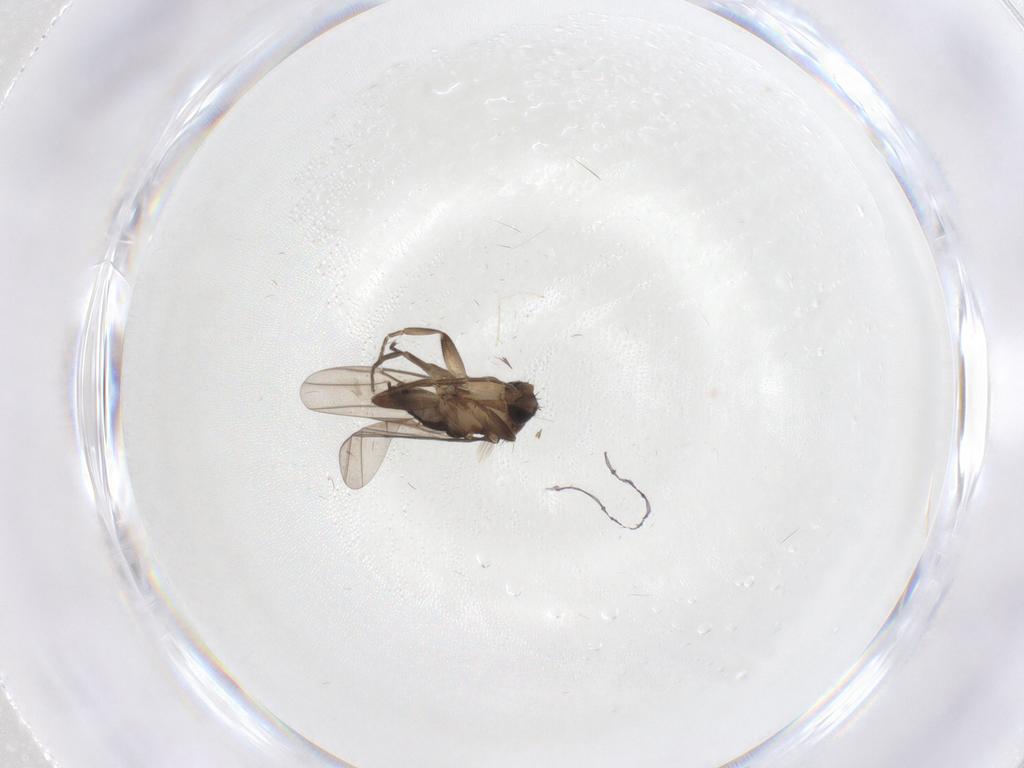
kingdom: Animalia
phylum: Arthropoda
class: Insecta
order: Diptera
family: Phoridae
